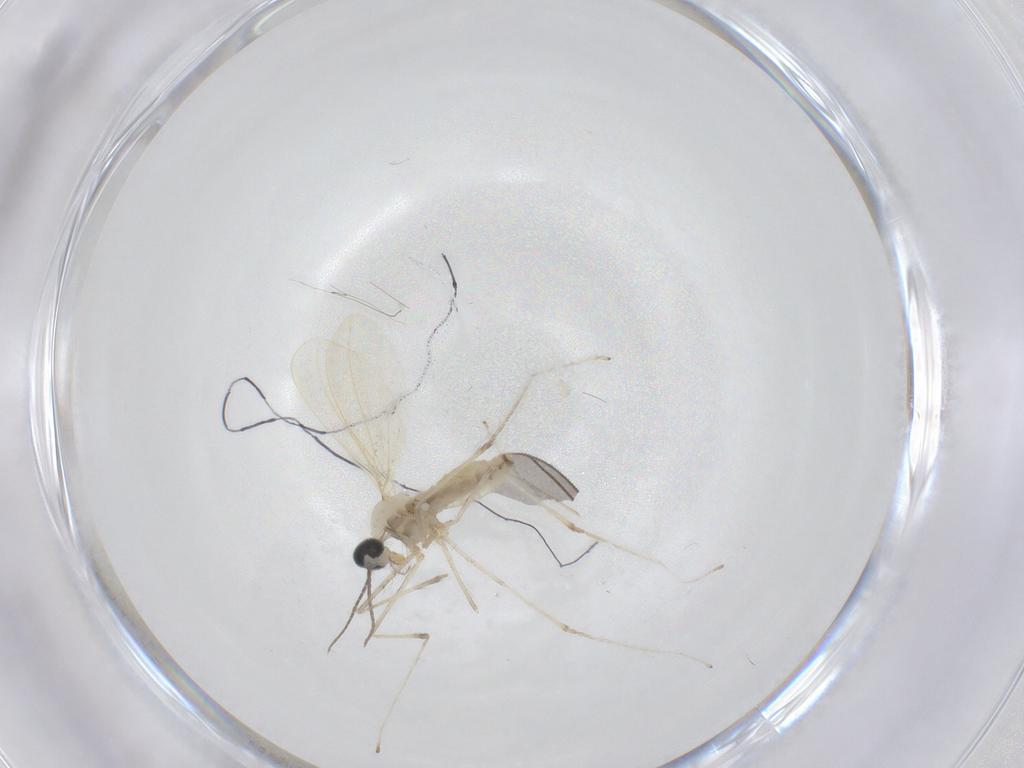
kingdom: Animalia
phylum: Arthropoda
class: Insecta
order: Diptera
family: Cecidomyiidae
